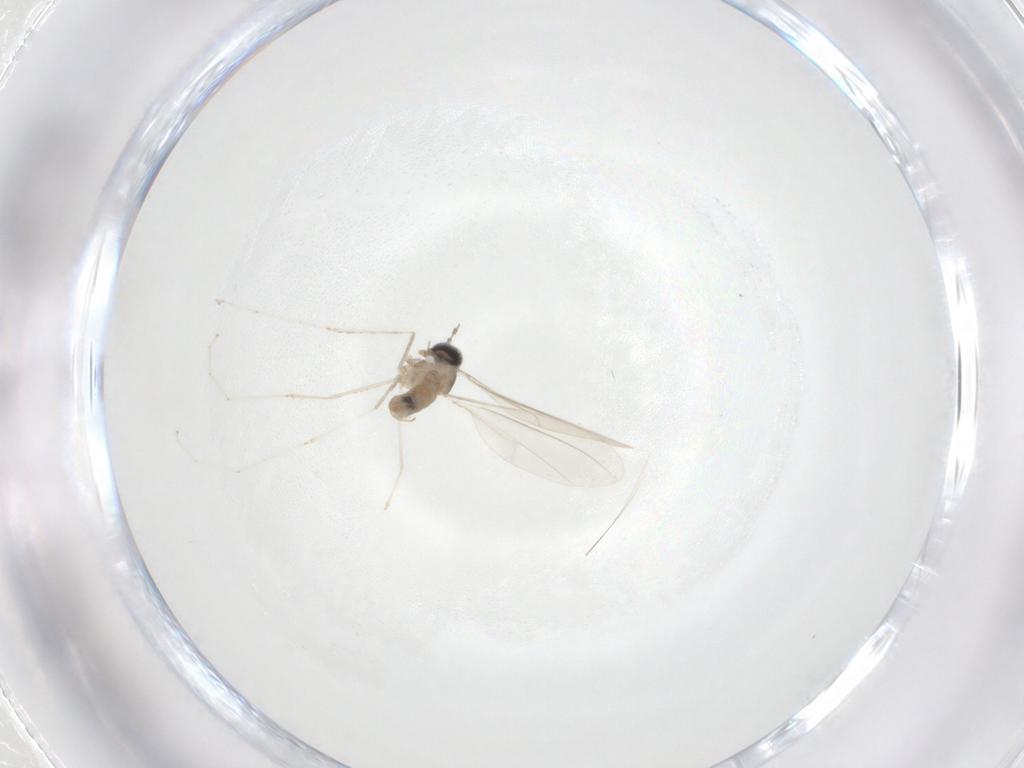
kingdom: Animalia
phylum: Arthropoda
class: Insecta
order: Diptera
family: Cecidomyiidae
